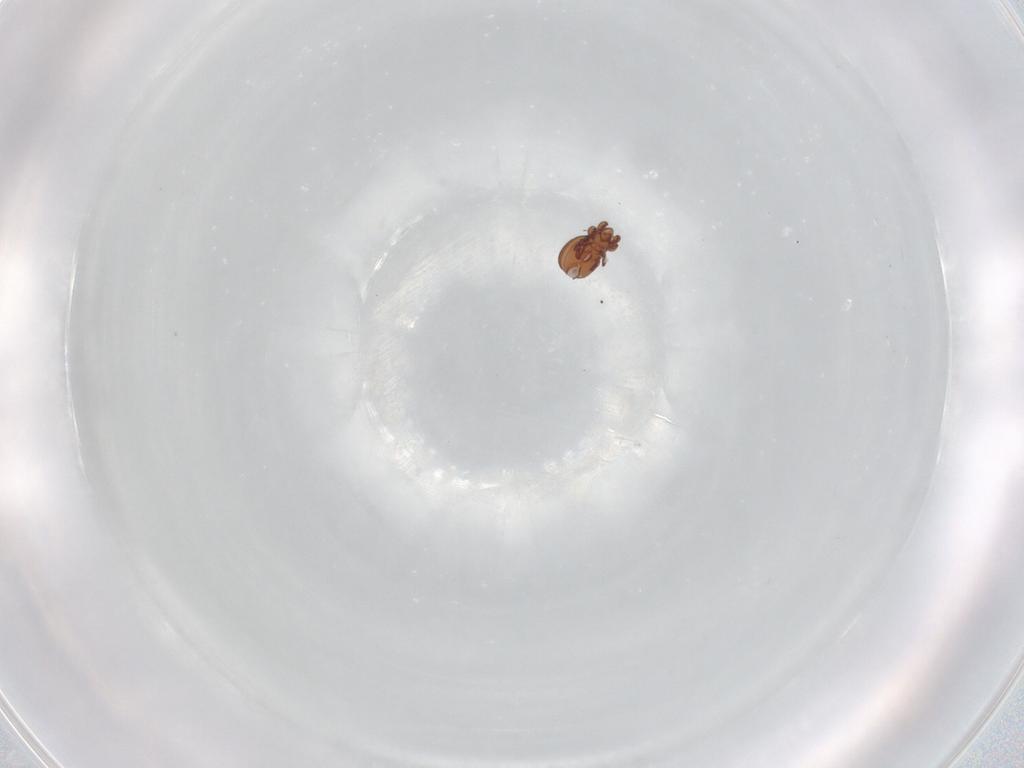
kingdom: Animalia
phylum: Arthropoda
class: Arachnida
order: Sarcoptiformes
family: Eremaeidae
